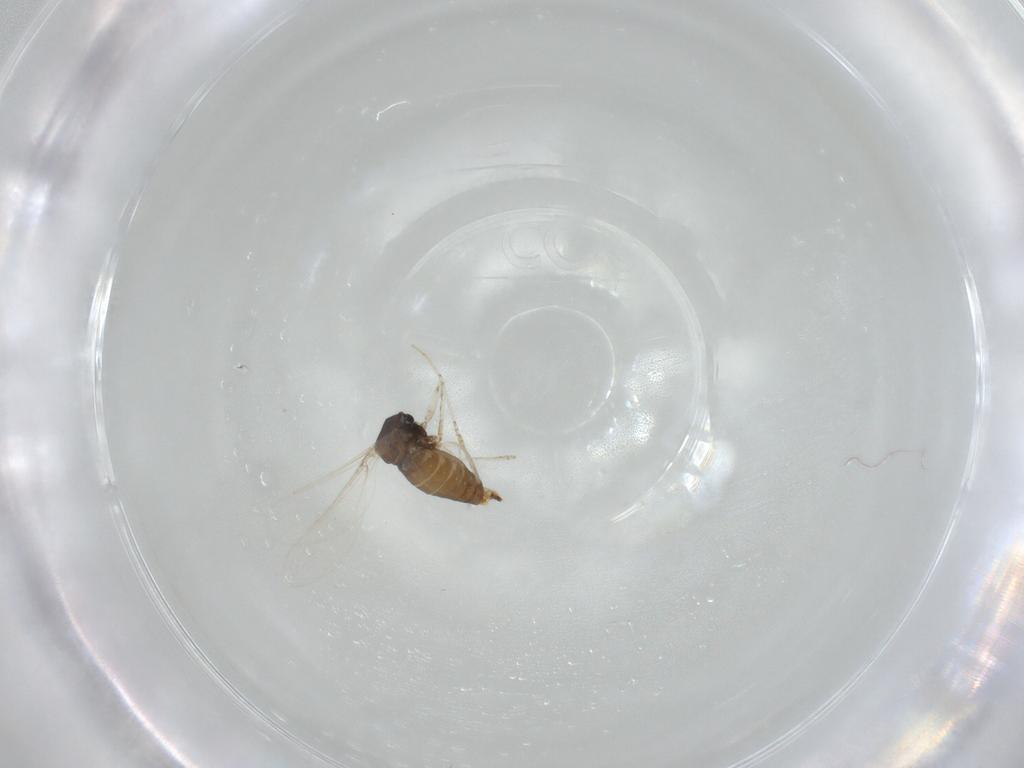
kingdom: Animalia
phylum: Arthropoda
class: Insecta
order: Diptera
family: Cecidomyiidae
